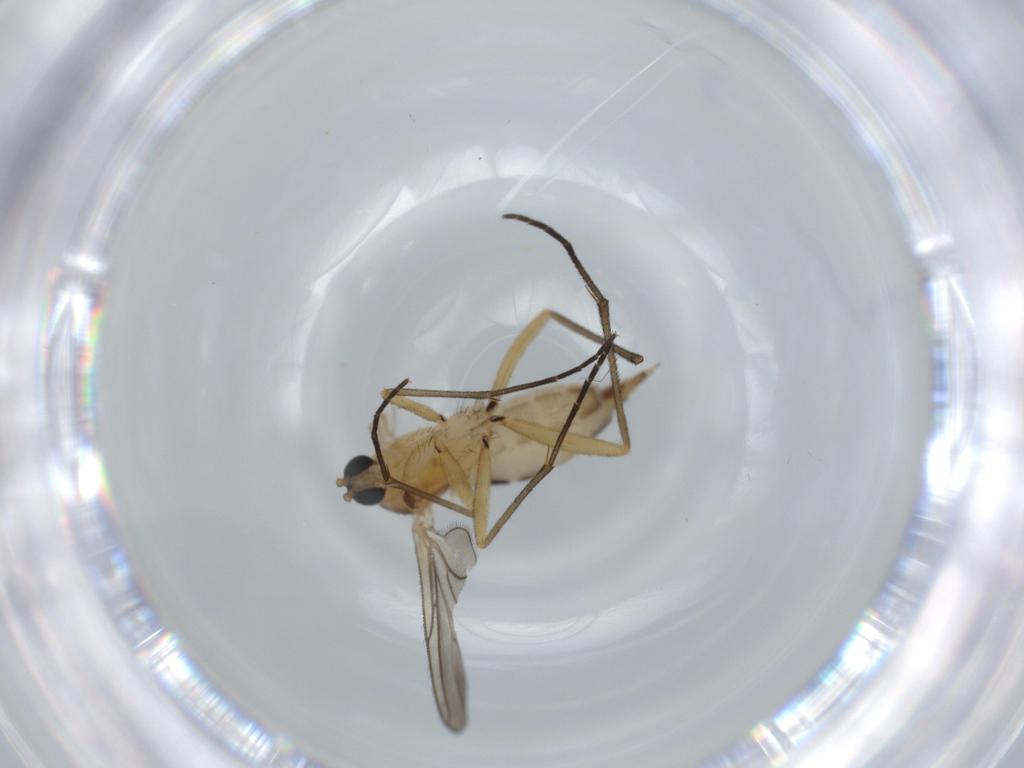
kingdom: Animalia
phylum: Arthropoda
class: Insecta
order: Diptera
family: Sciaridae
